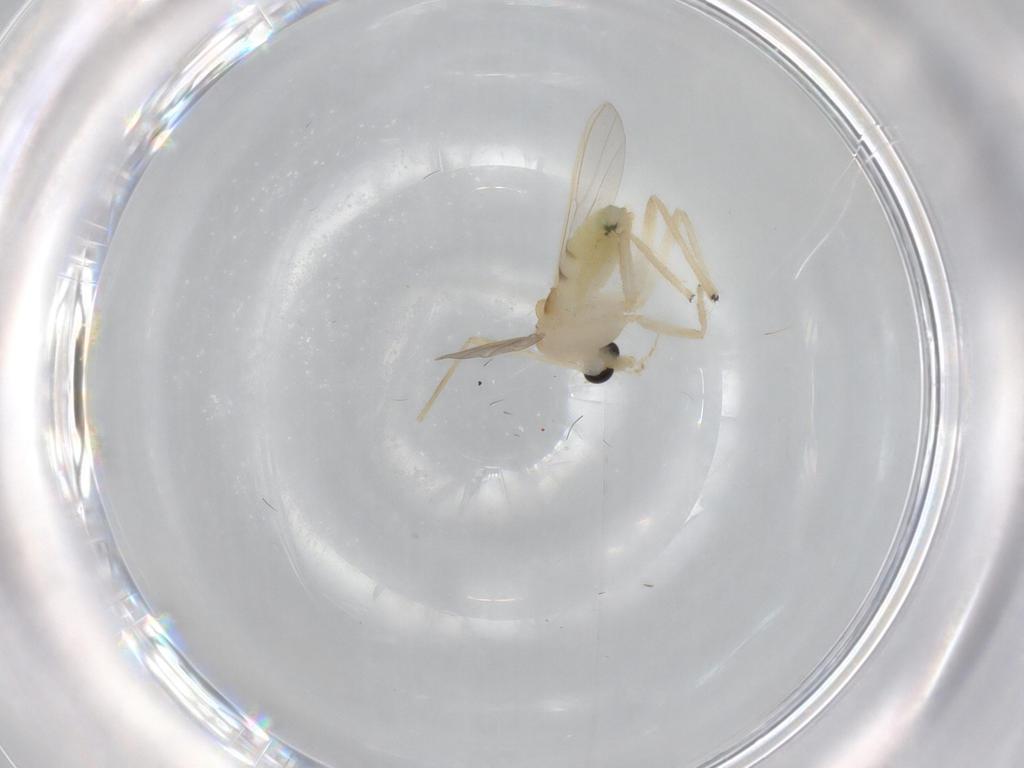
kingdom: Animalia
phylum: Arthropoda
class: Insecta
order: Diptera
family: Chironomidae
